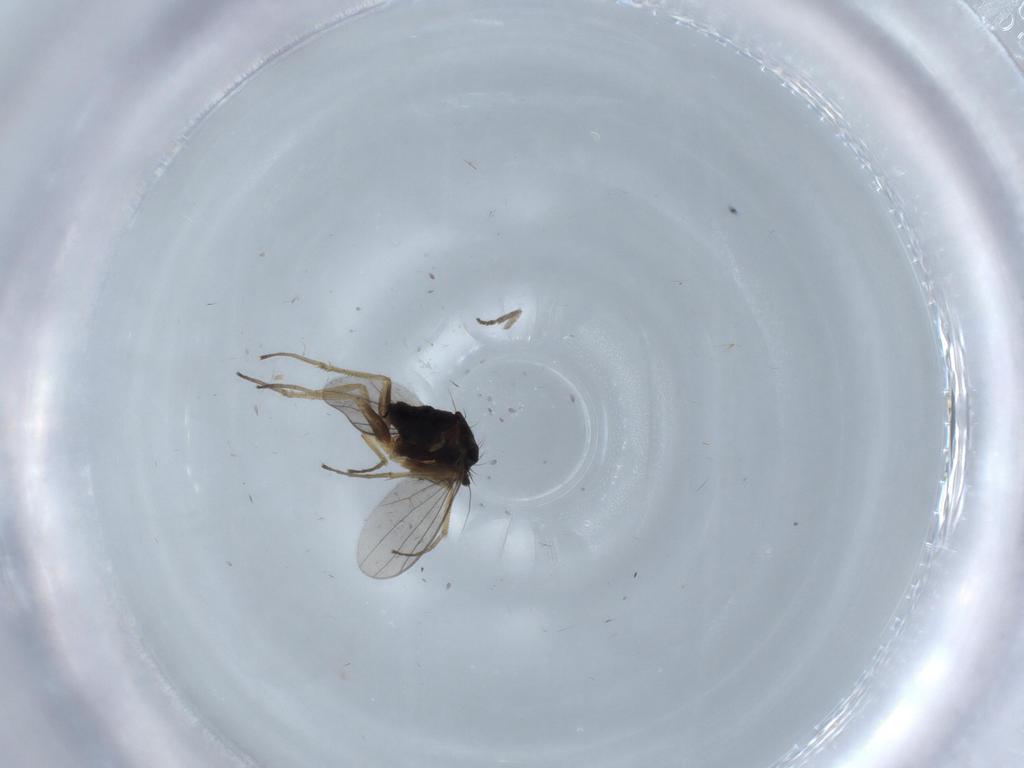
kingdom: Animalia
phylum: Arthropoda
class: Insecta
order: Diptera
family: Dolichopodidae
